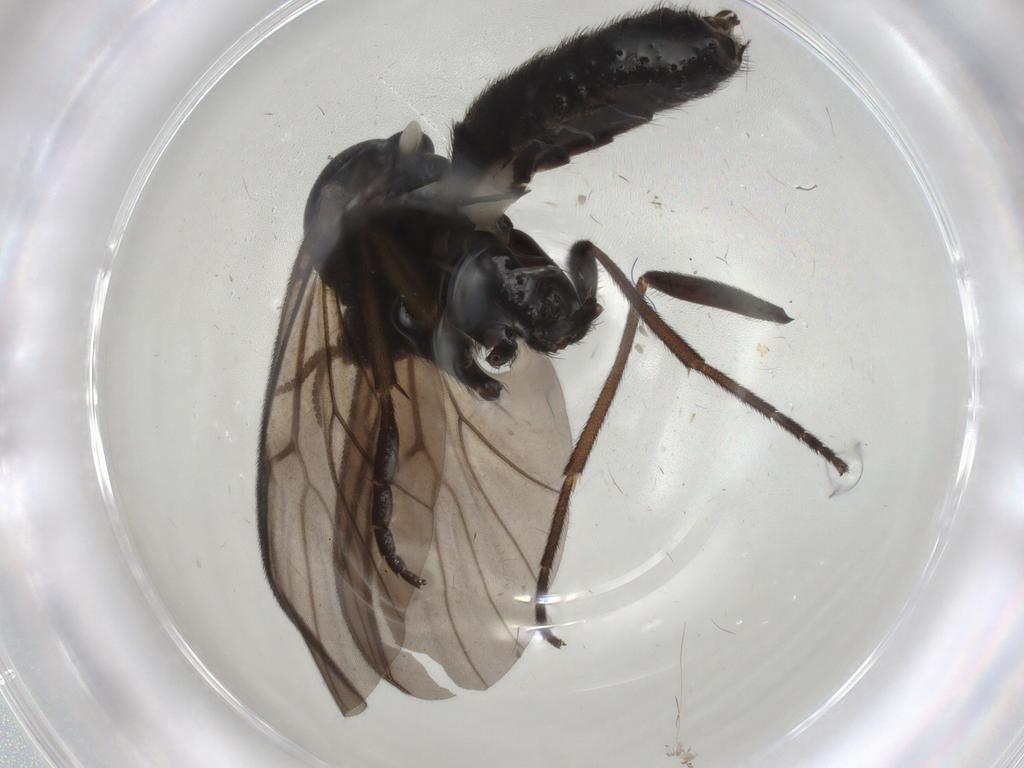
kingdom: Animalia
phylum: Arthropoda
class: Insecta
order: Diptera
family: Mycetophilidae
